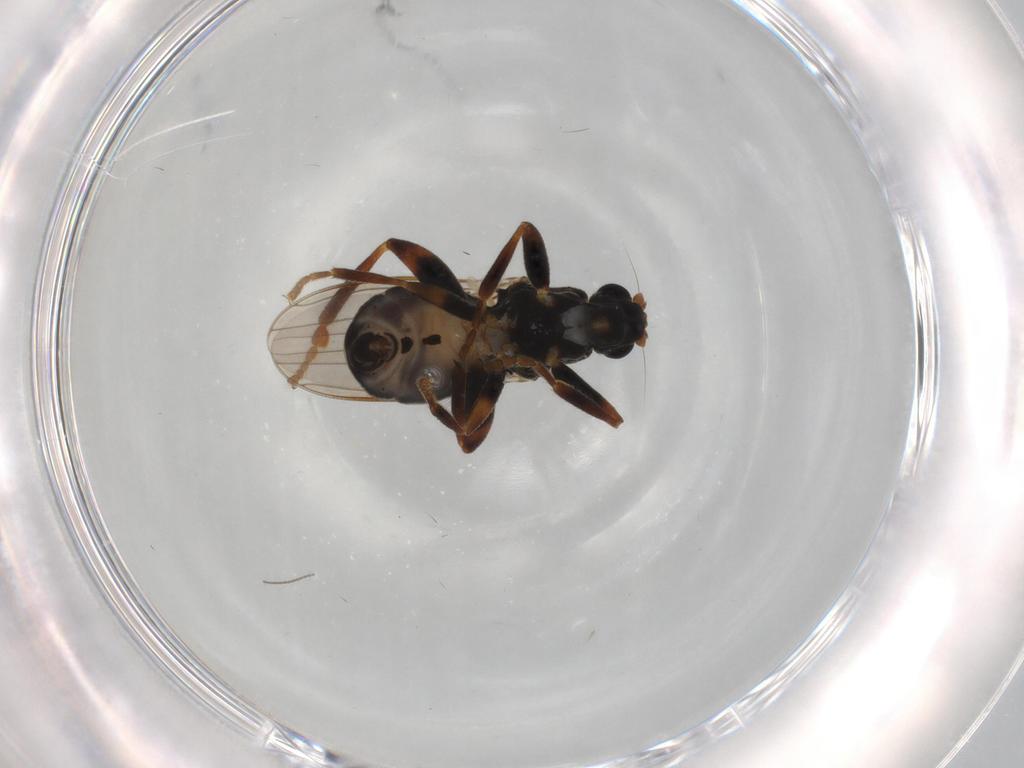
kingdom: Animalia
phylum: Arthropoda
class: Insecta
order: Diptera
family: Sphaeroceridae
